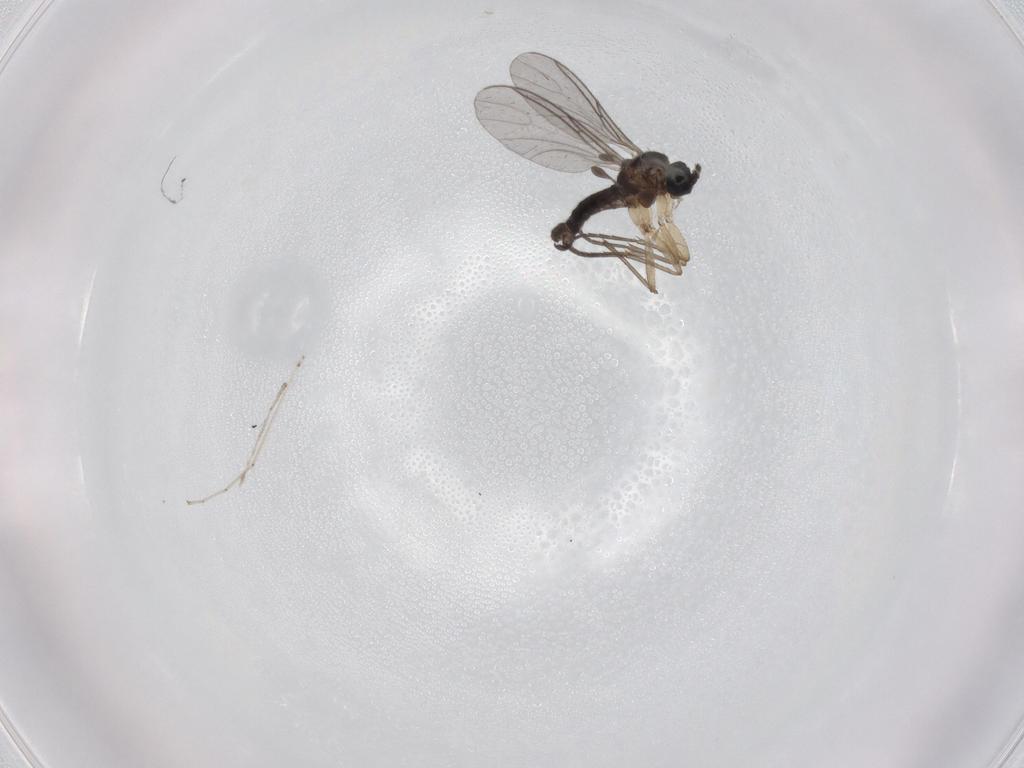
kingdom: Animalia
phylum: Arthropoda
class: Insecta
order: Diptera
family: Sciaridae
